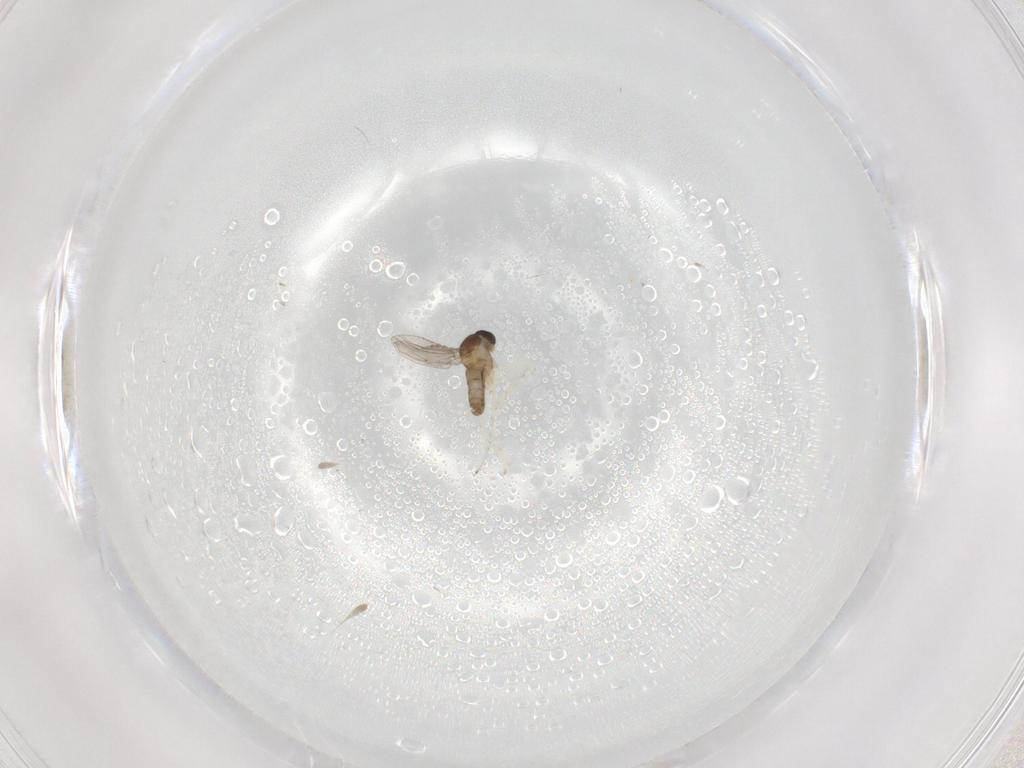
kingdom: Animalia
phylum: Arthropoda
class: Insecta
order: Diptera
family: Cecidomyiidae
